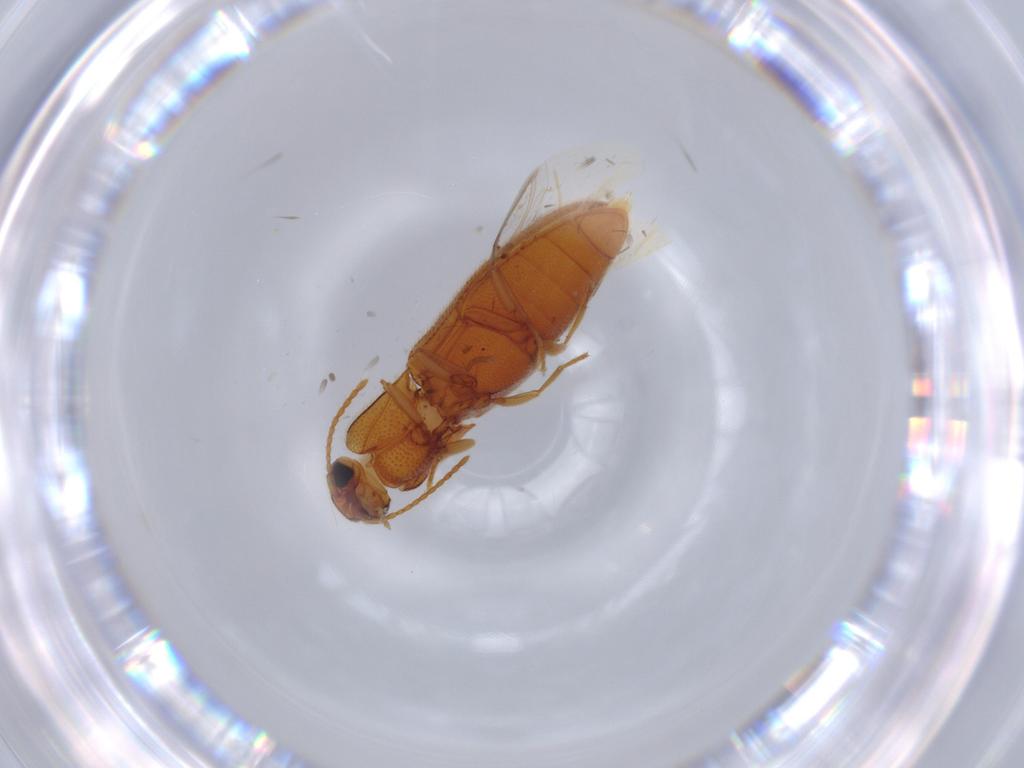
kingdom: Animalia
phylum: Arthropoda
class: Insecta
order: Coleoptera
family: Elateridae
